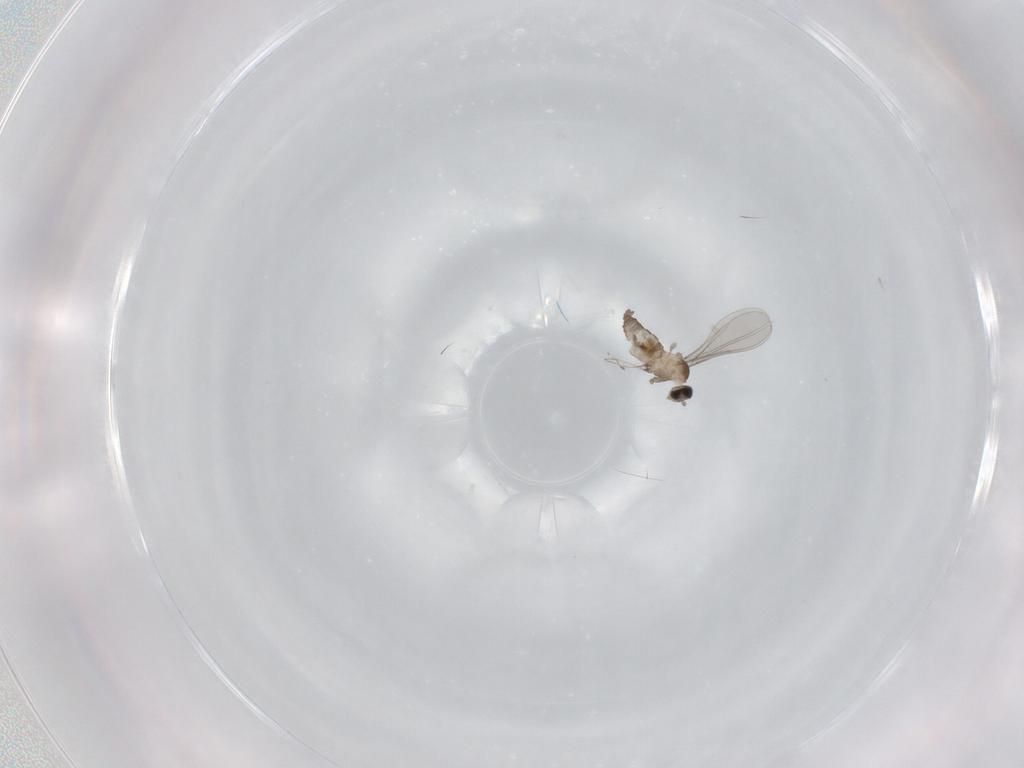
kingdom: Animalia
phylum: Arthropoda
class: Insecta
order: Diptera
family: Cecidomyiidae
